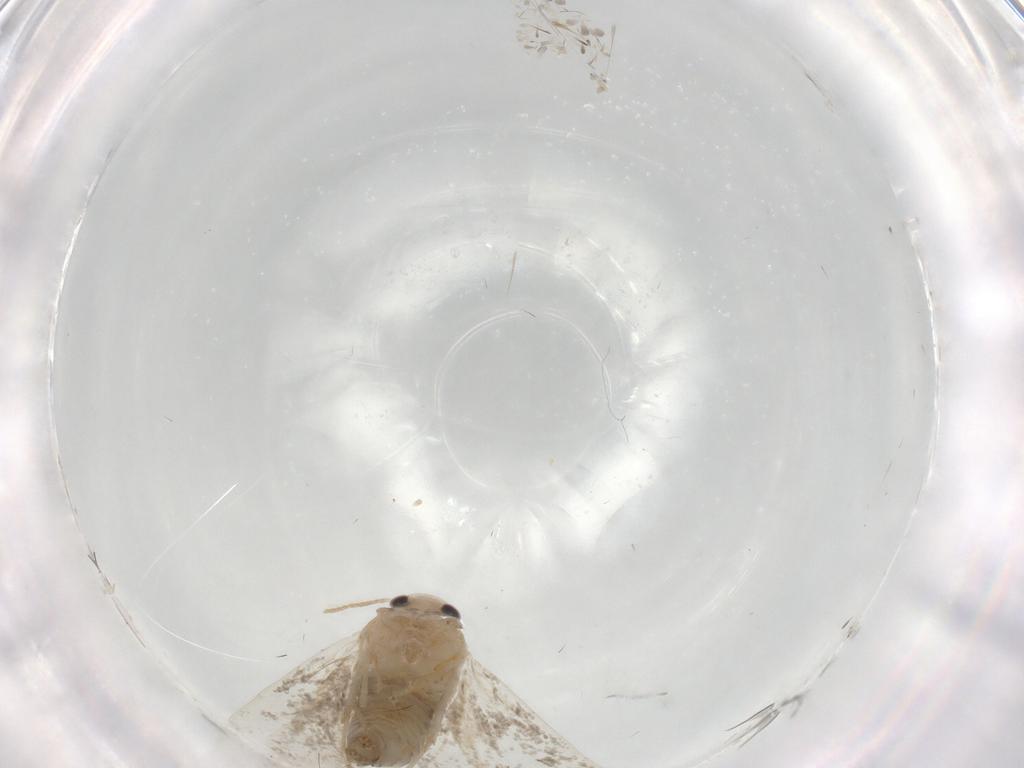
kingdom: Animalia
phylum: Arthropoda
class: Insecta
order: Lepidoptera
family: Psychidae
